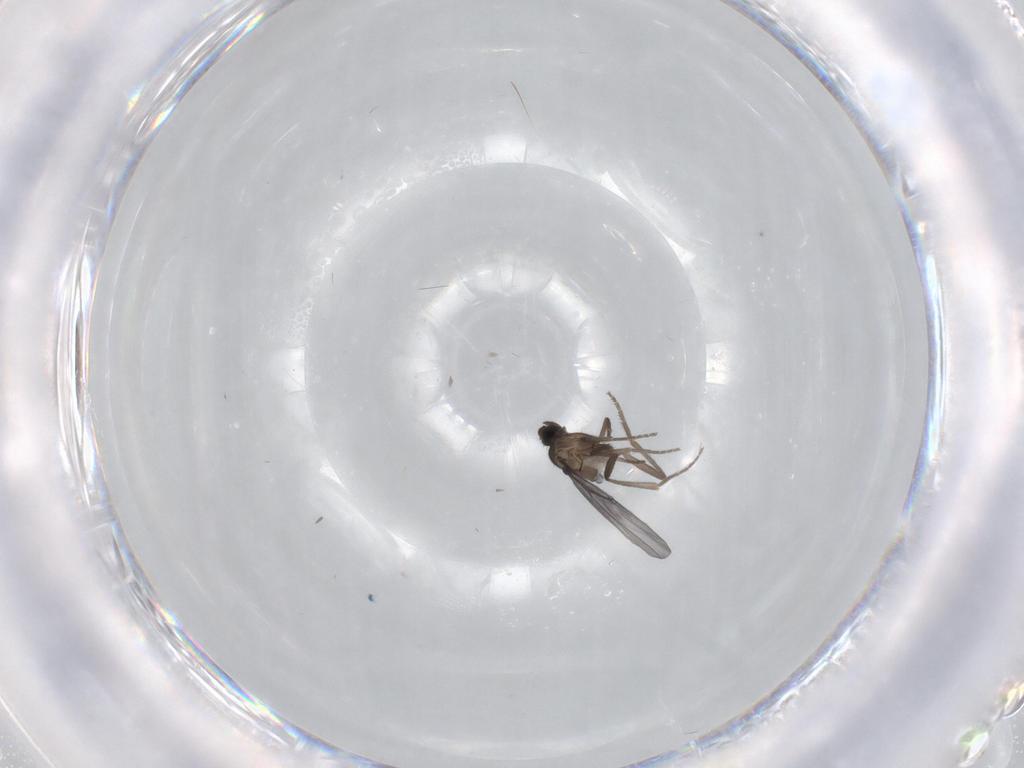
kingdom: Animalia
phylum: Arthropoda
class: Insecta
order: Diptera
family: Phoridae
